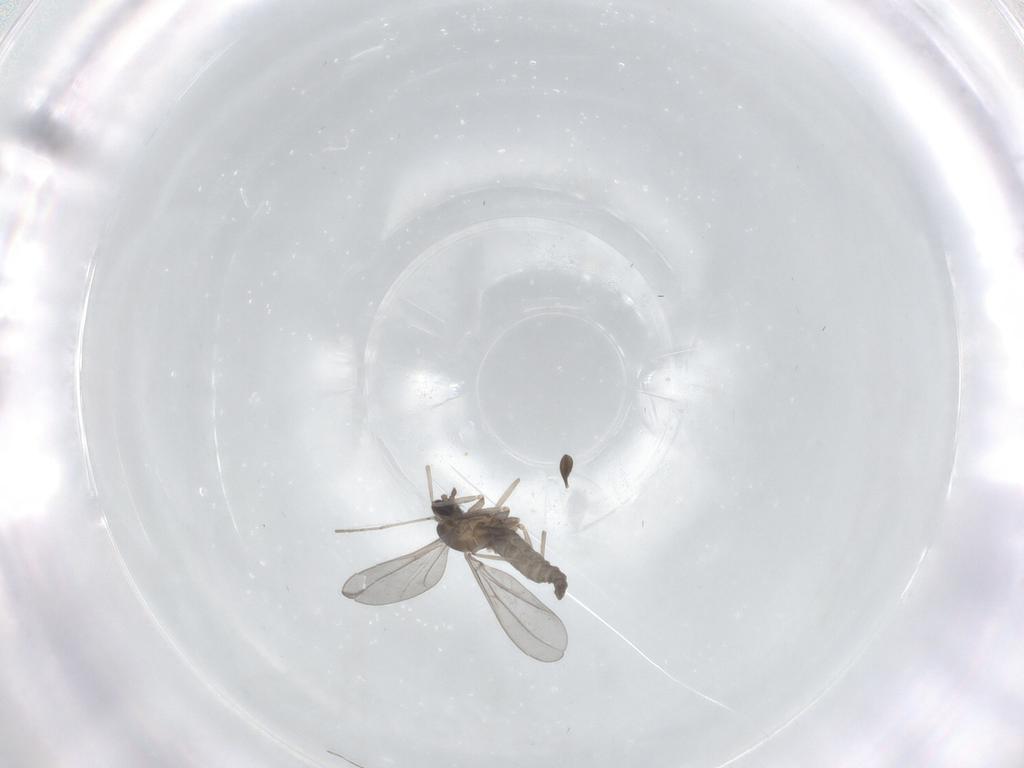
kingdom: Animalia
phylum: Arthropoda
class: Insecta
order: Diptera
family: Cecidomyiidae
